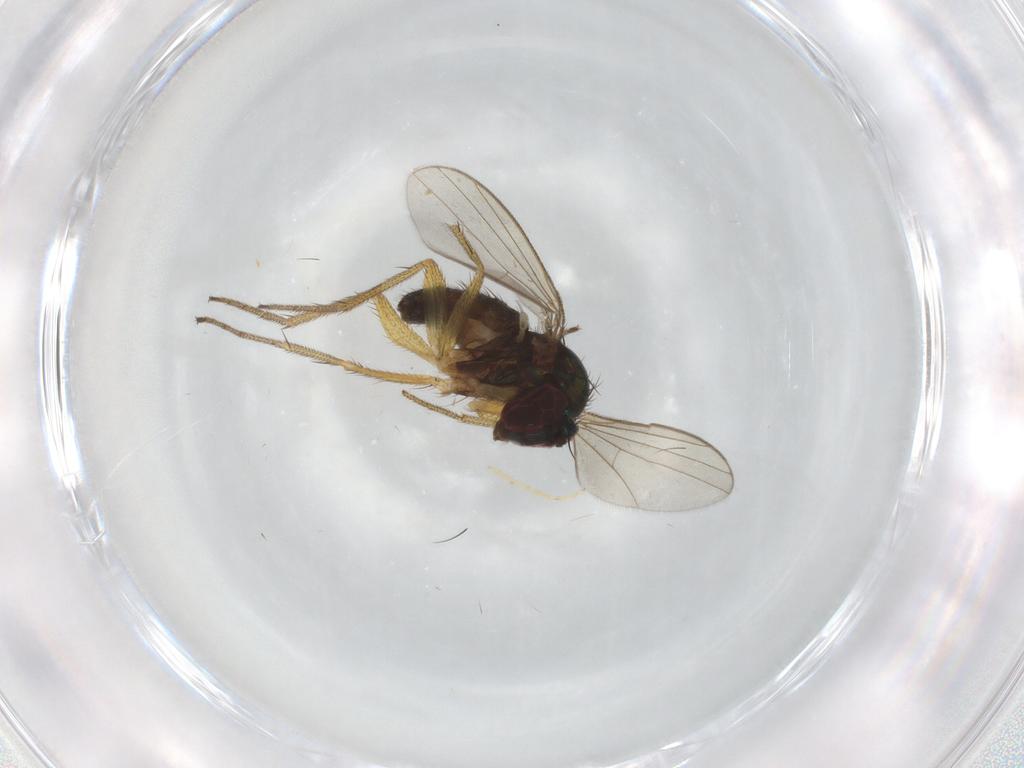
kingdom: Animalia
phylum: Arthropoda
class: Insecta
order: Diptera
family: Dolichopodidae
